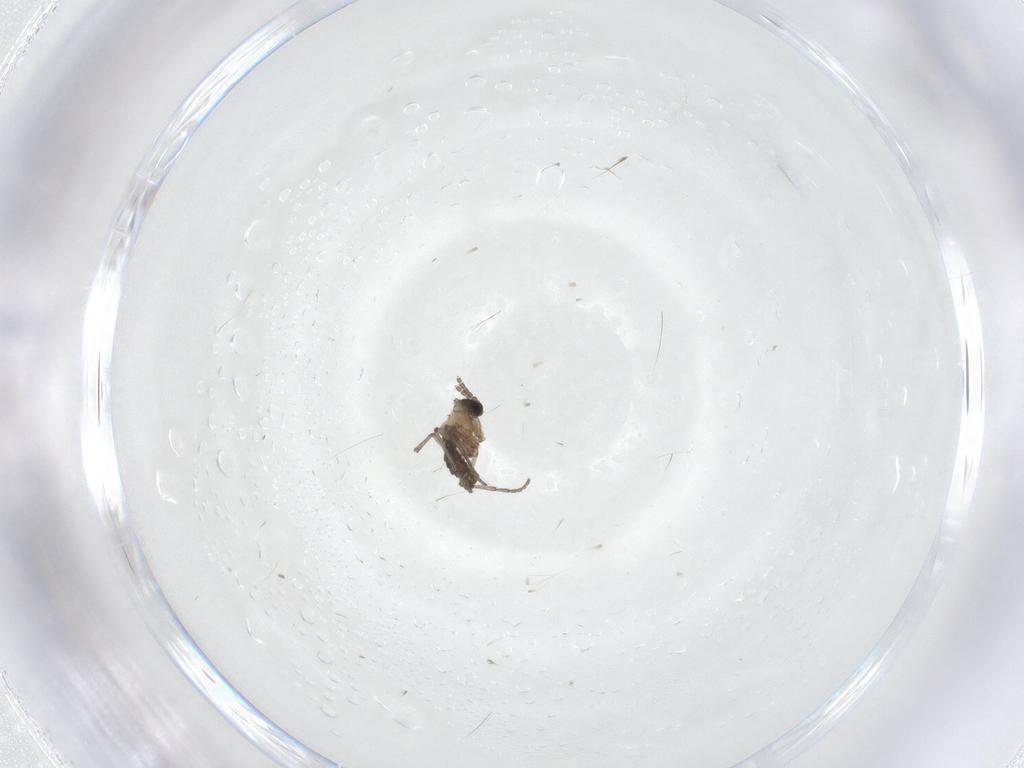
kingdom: Animalia
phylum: Arthropoda
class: Insecta
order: Diptera
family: Sciaridae
